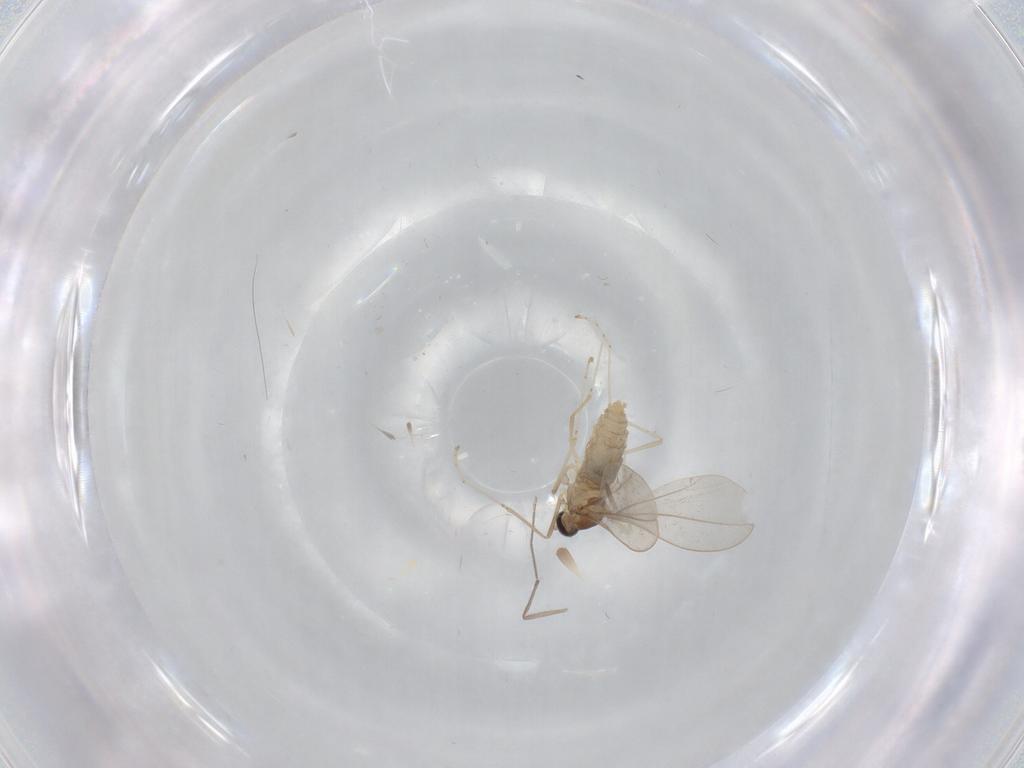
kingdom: Animalia
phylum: Arthropoda
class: Insecta
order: Diptera
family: Cecidomyiidae
